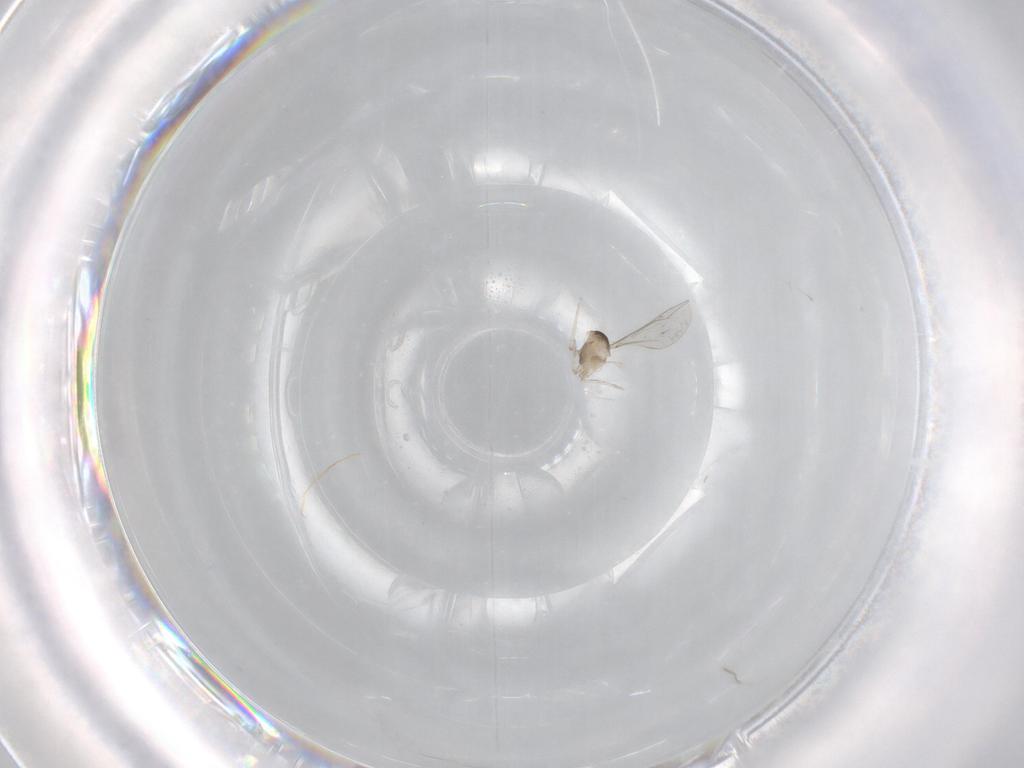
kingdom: Animalia
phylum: Arthropoda
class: Insecta
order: Diptera
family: Cecidomyiidae
